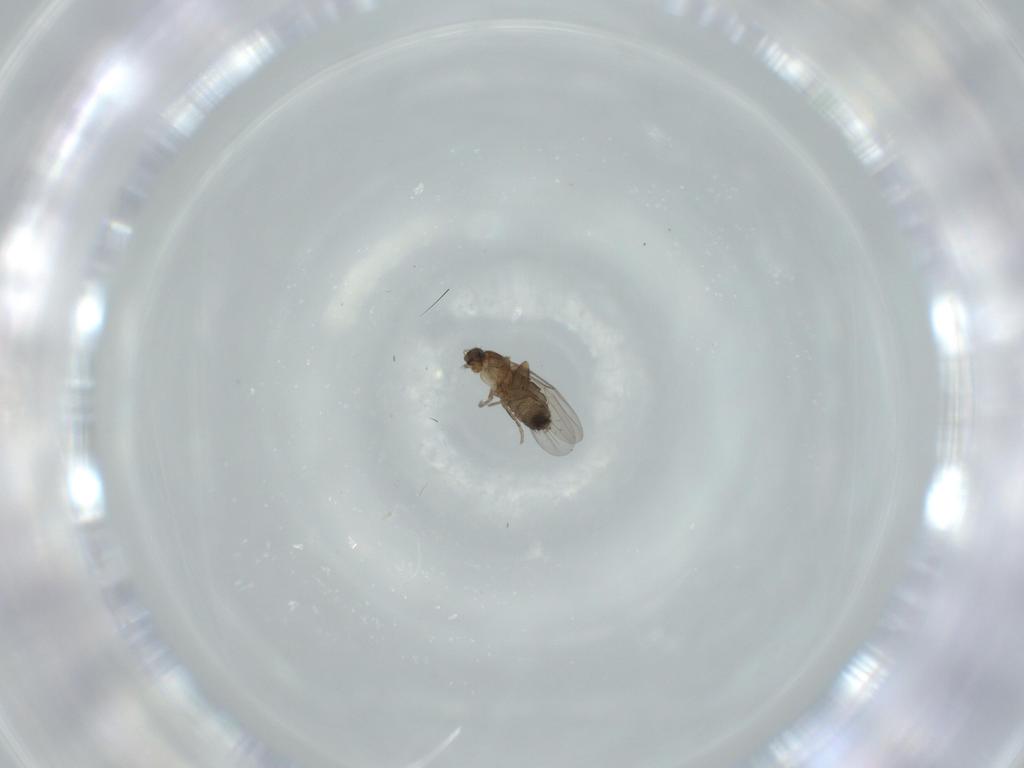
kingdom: Animalia
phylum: Arthropoda
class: Insecta
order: Diptera
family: Phoridae
